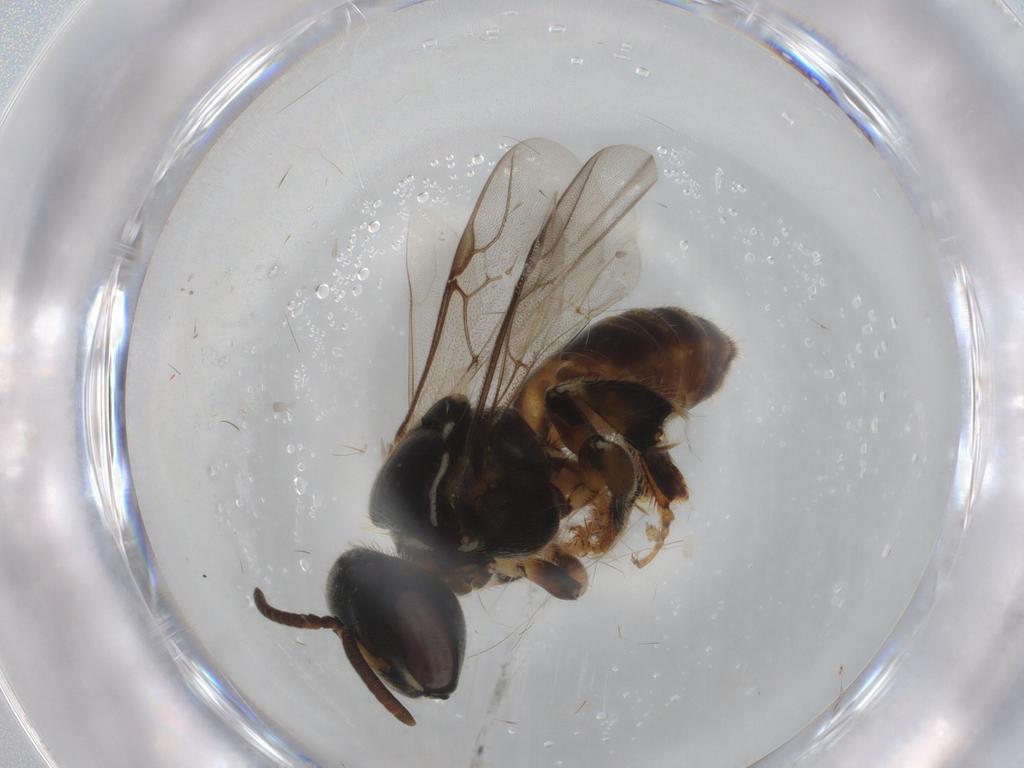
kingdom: Animalia
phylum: Arthropoda
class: Insecta
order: Hymenoptera
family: Apidae
